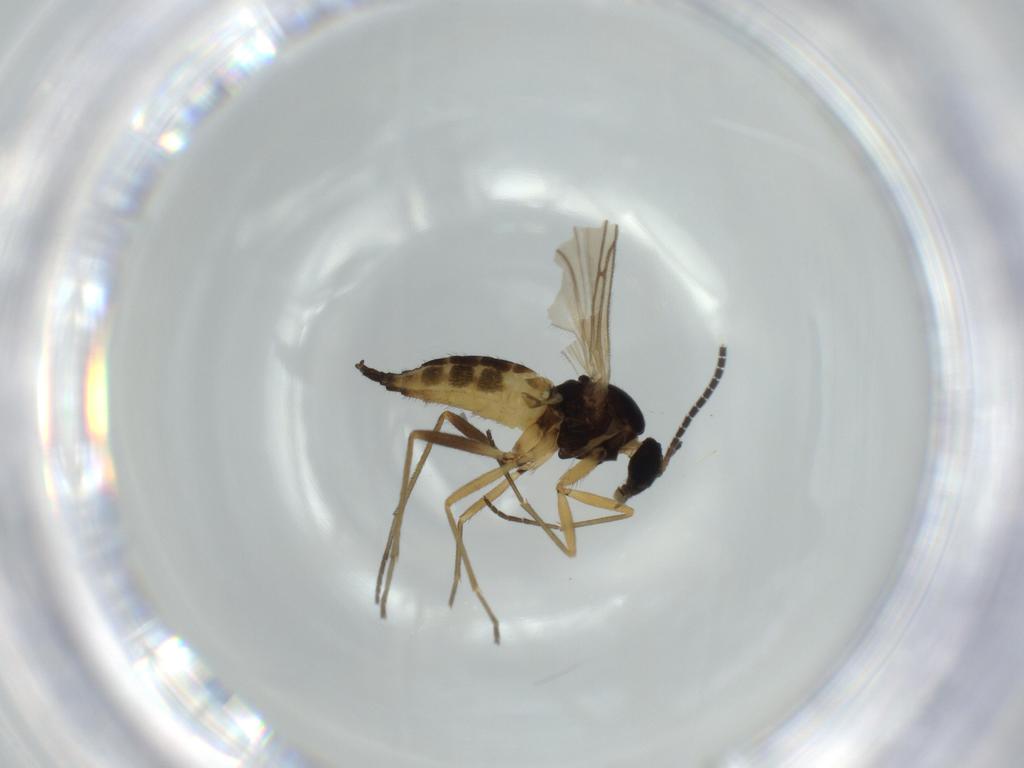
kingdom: Animalia
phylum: Arthropoda
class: Insecta
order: Diptera
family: Sciaridae
